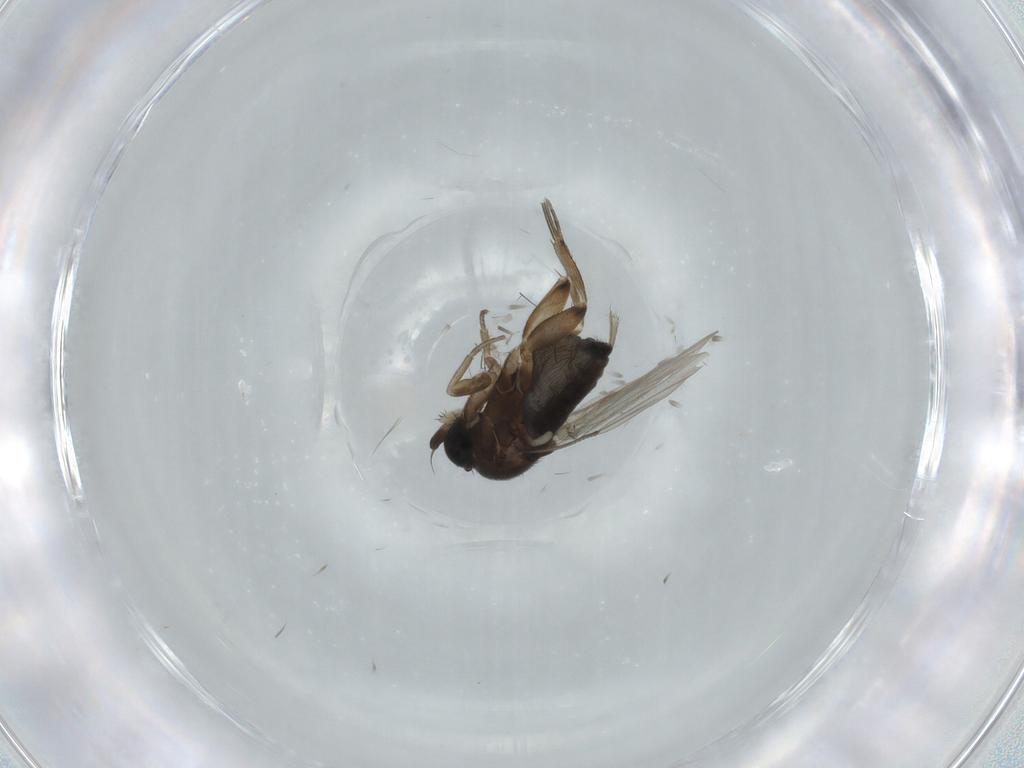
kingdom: Animalia
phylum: Arthropoda
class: Insecta
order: Diptera
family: Phoridae
